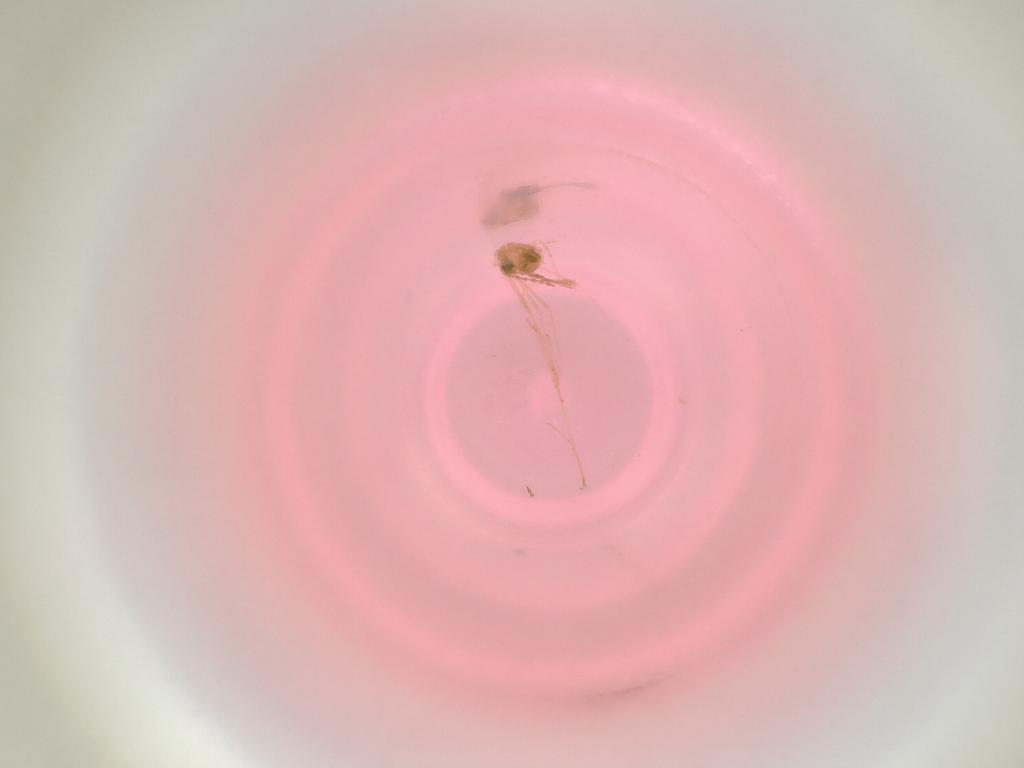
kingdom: Animalia
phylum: Arthropoda
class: Insecta
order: Diptera
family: Cecidomyiidae
